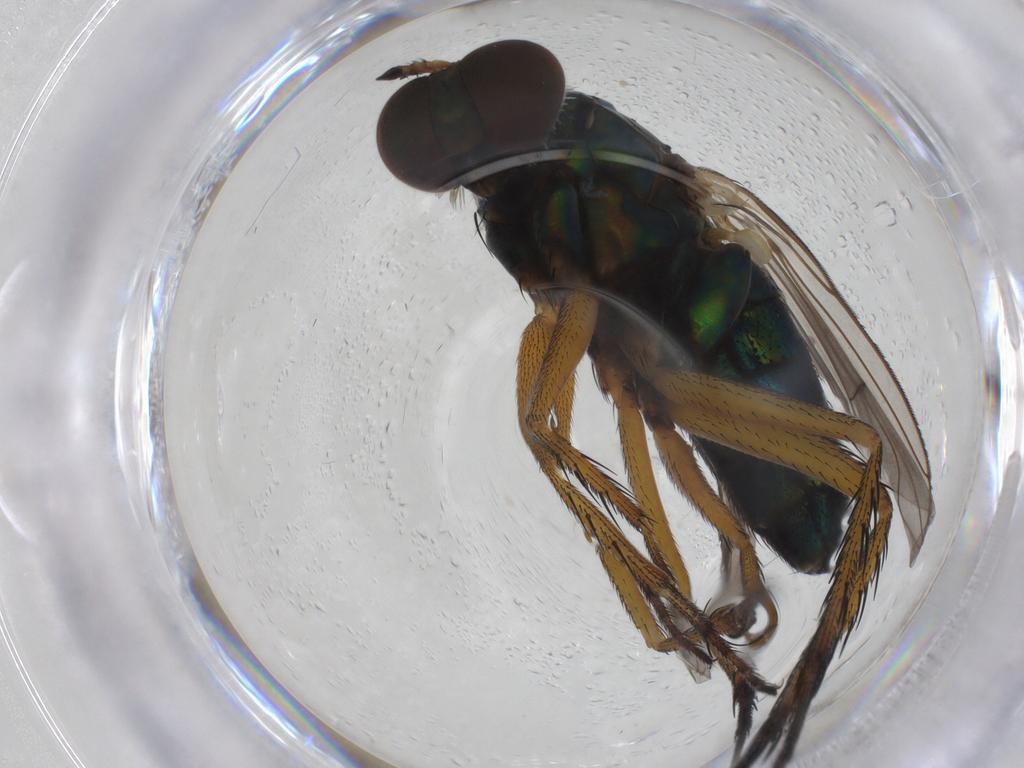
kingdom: Animalia
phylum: Arthropoda
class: Insecta
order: Diptera
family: Dolichopodidae
